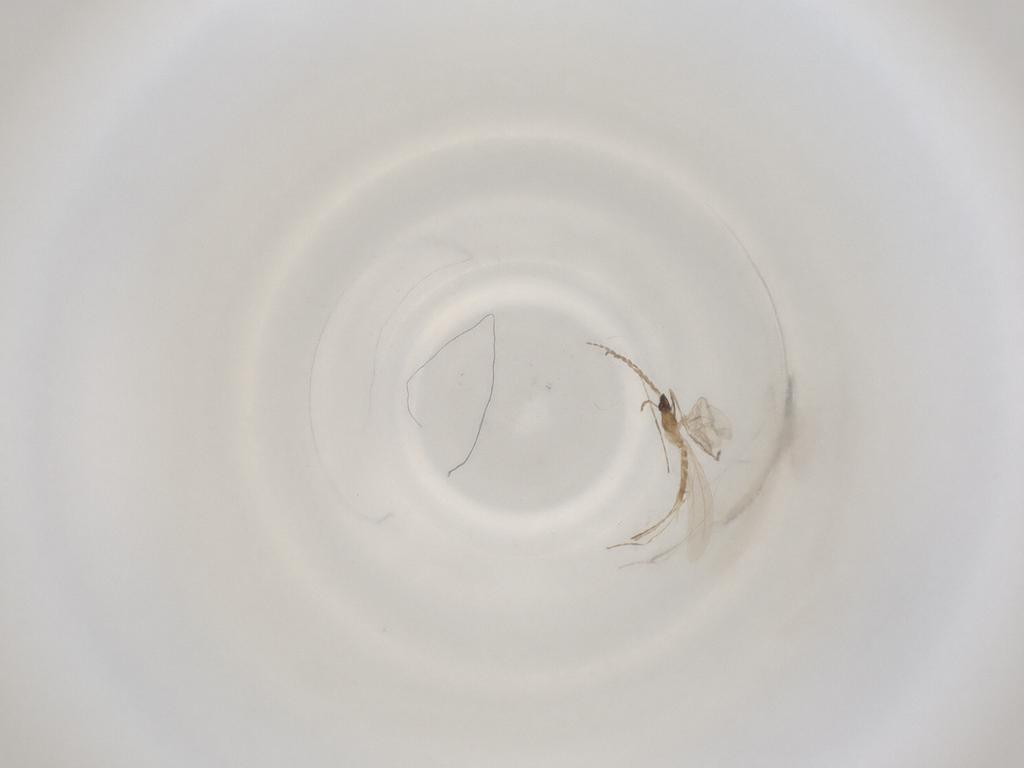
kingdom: Animalia
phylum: Arthropoda
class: Insecta
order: Diptera
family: Cecidomyiidae
